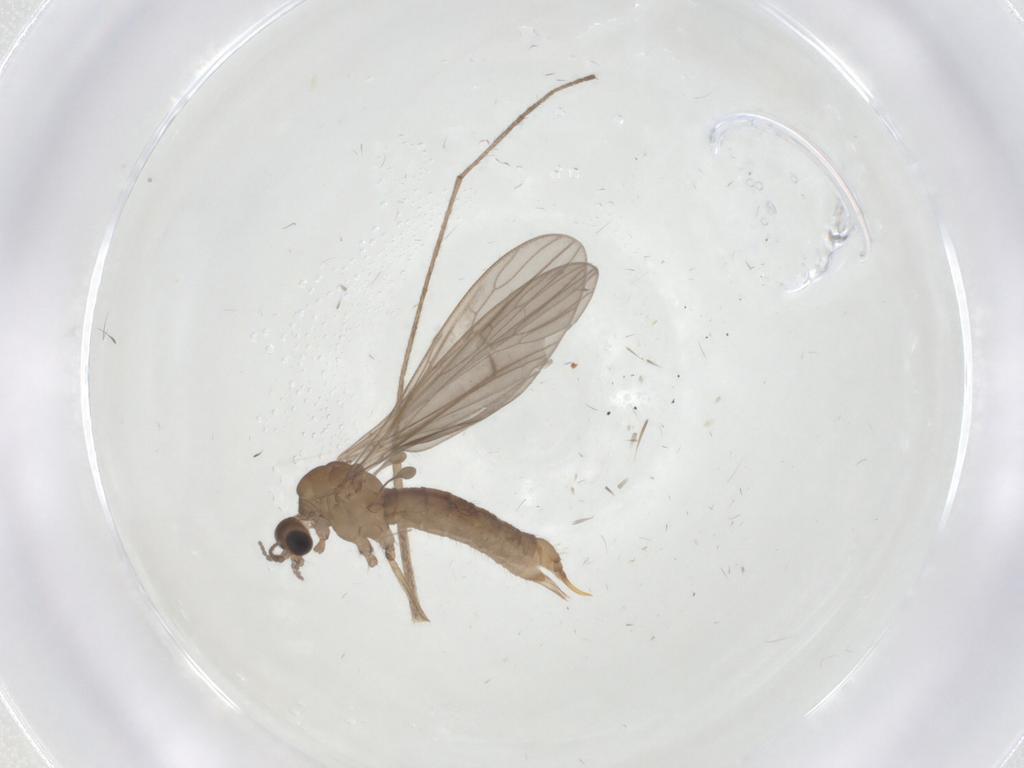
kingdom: Animalia
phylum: Arthropoda
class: Insecta
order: Diptera
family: Limoniidae
